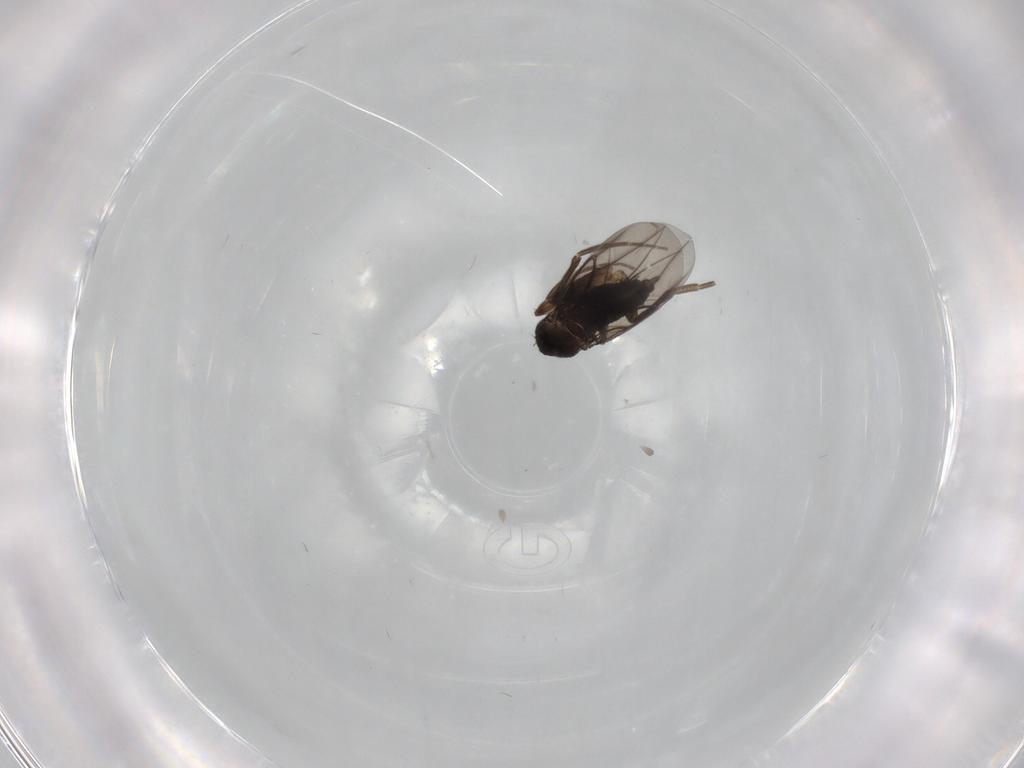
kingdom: Animalia
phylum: Arthropoda
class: Insecta
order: Diptera
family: Phoridae
